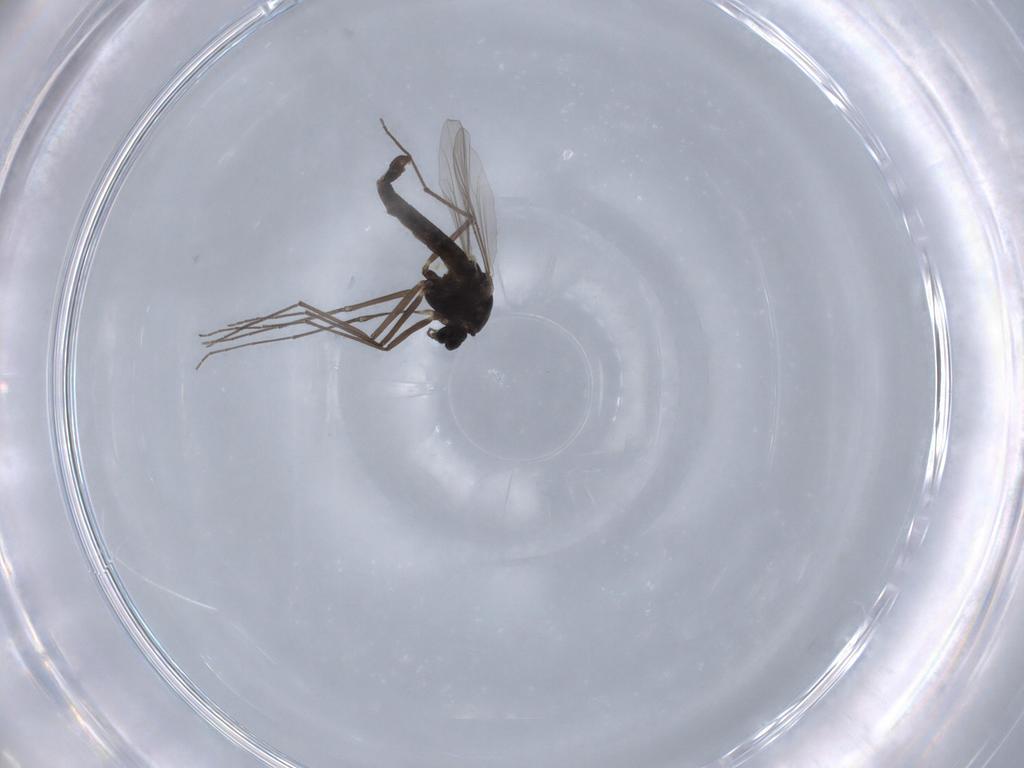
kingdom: Animalia
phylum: Arthropoda
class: Insecta
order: Diptera
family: Chironomidae
